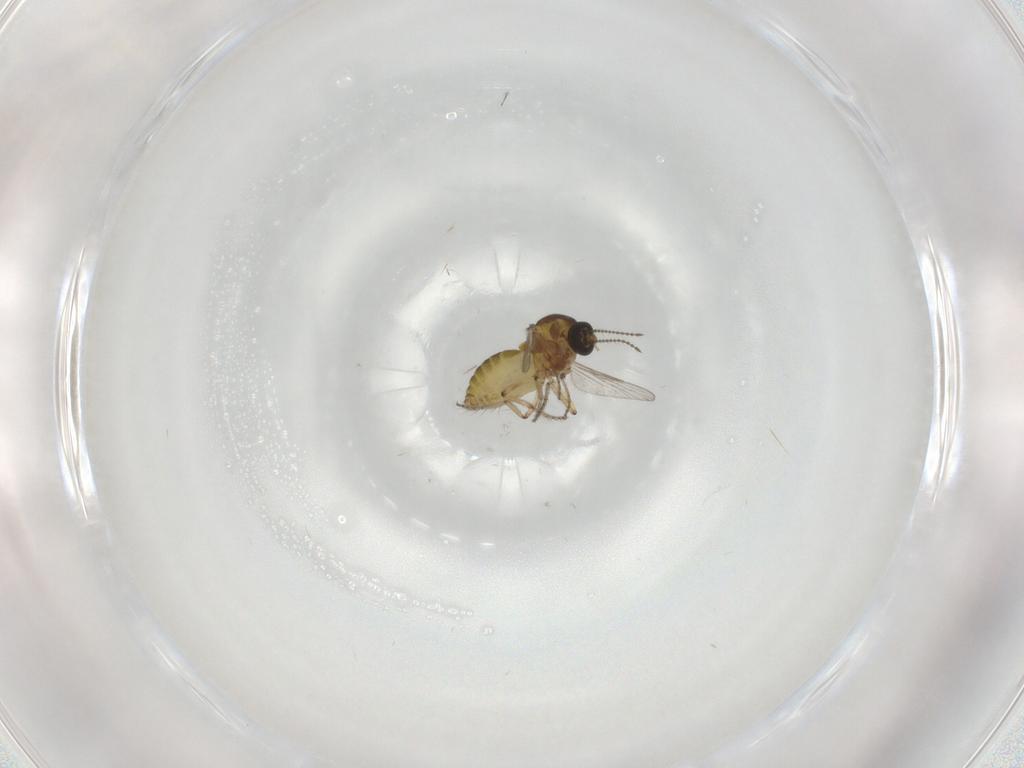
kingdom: Animalia
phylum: Arthropoda
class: Insecta
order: Diptera
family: Ceratopogonidae
